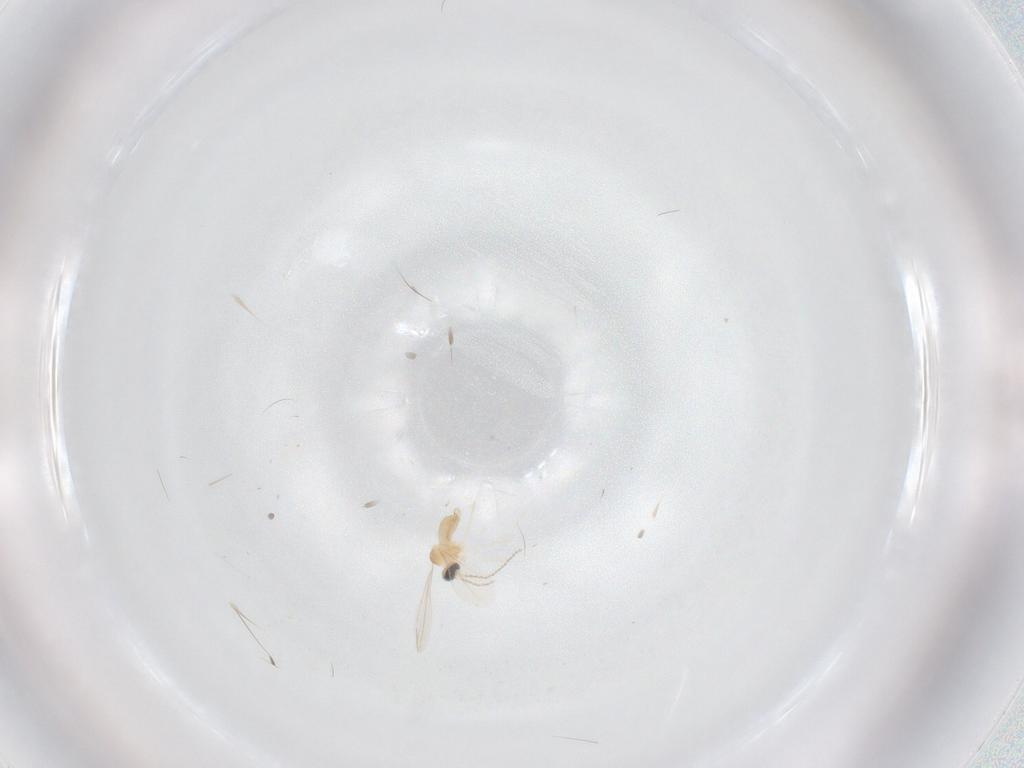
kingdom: Animalia
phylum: Arthropoda
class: Insecta
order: Diptera
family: Cecidomyiidae
